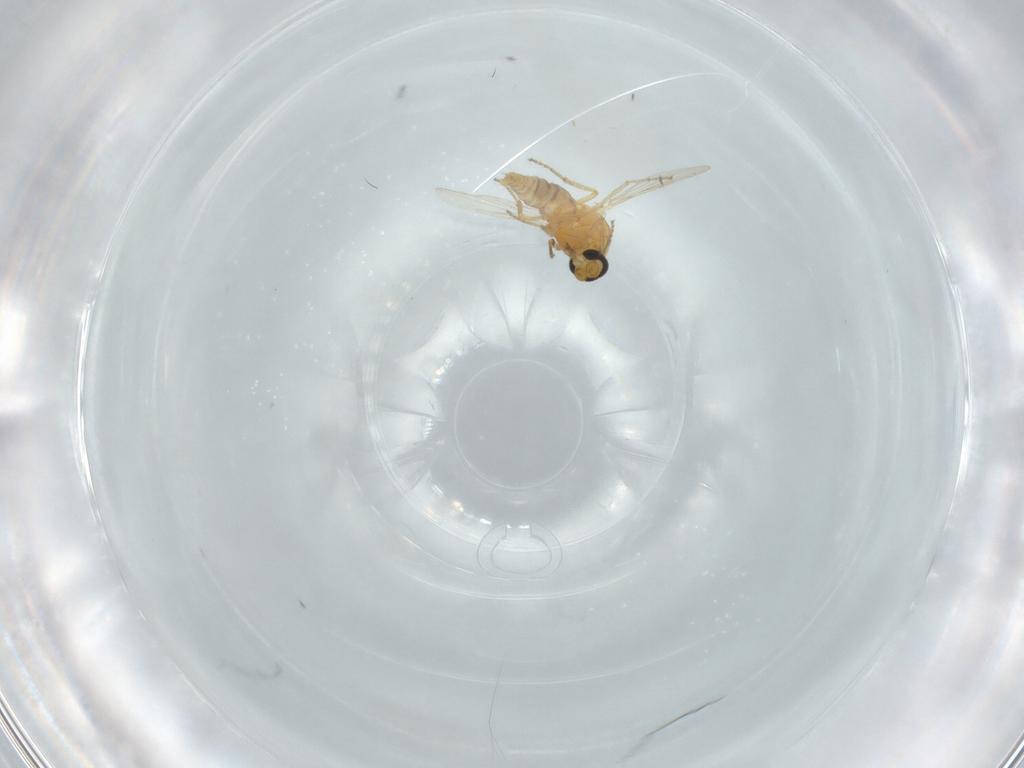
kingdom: Animalia
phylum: Arthropoda
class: Insecta
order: Diptera
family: Ceratopogonidae
